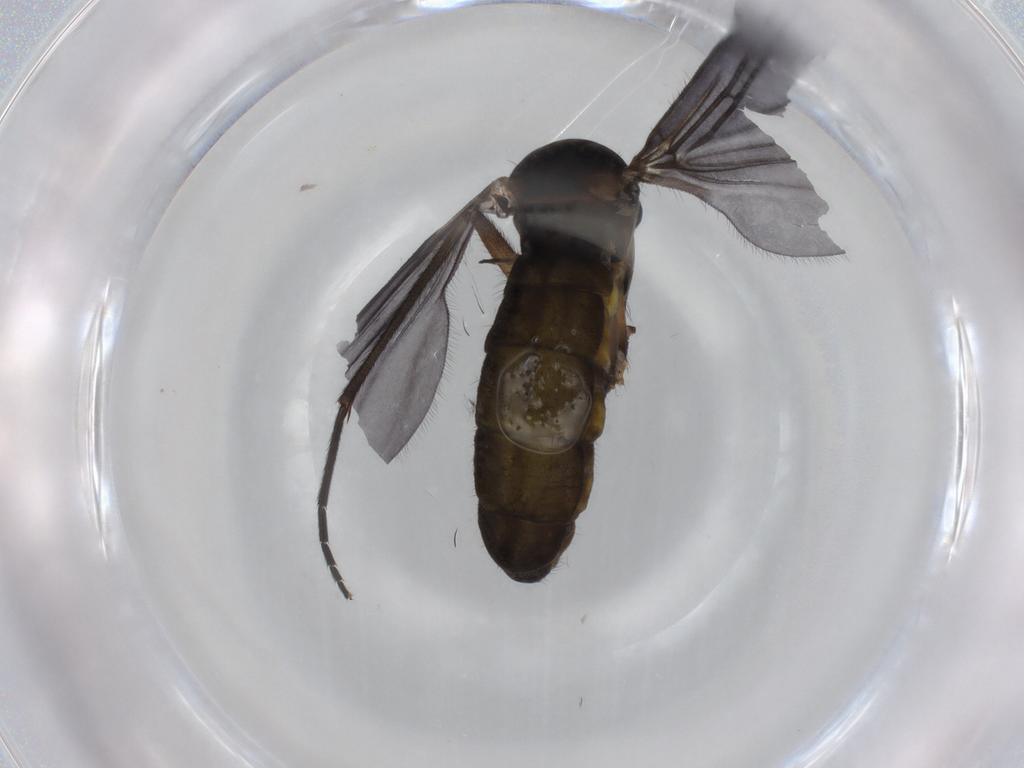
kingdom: Animalia
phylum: Arthropoda
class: Insecta
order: Diptera
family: Sciaridae
